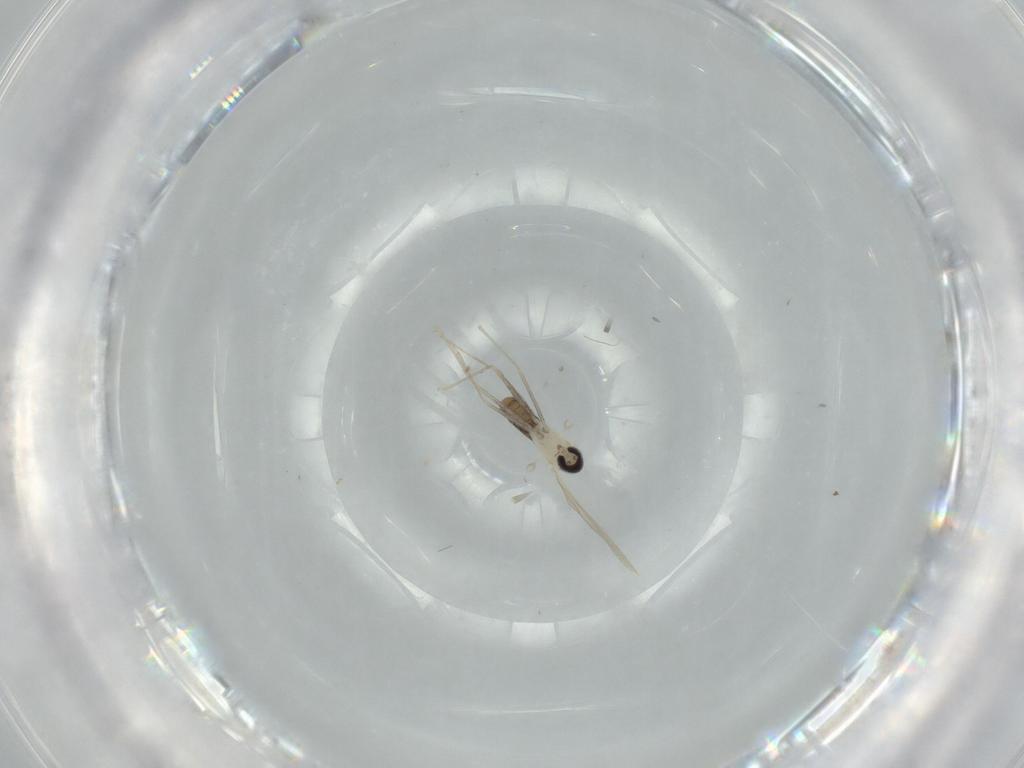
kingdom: Animalia
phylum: Arthropoda
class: Insecta
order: Diptera
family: Cecidomyiidae
